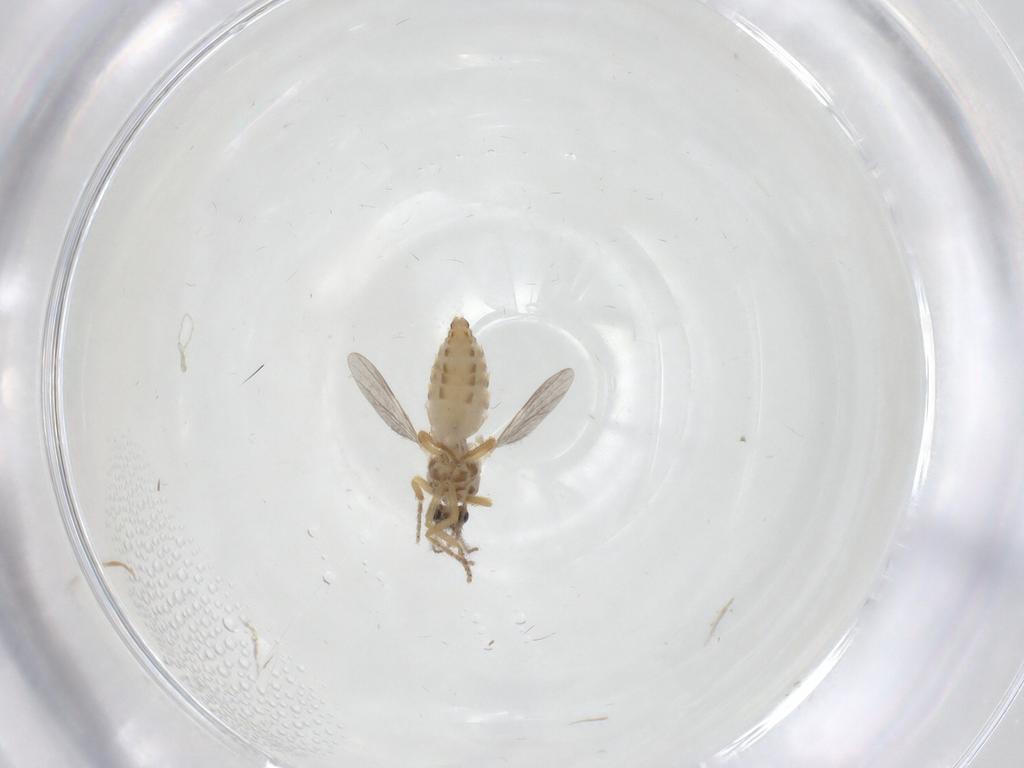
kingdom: Animalia
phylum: Arthropoda
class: Insecta
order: Diptera
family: Ceratopogonidae
